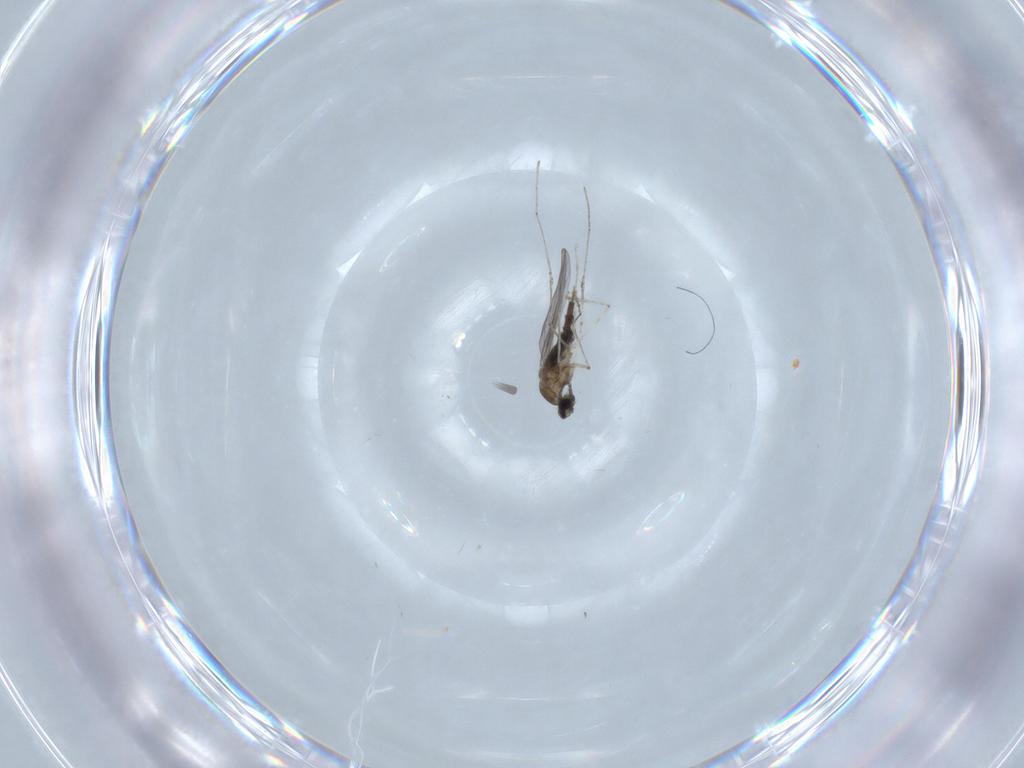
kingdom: Animalia
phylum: Arthropoda
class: Insecta
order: Diptera
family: Cecidomyiidae
